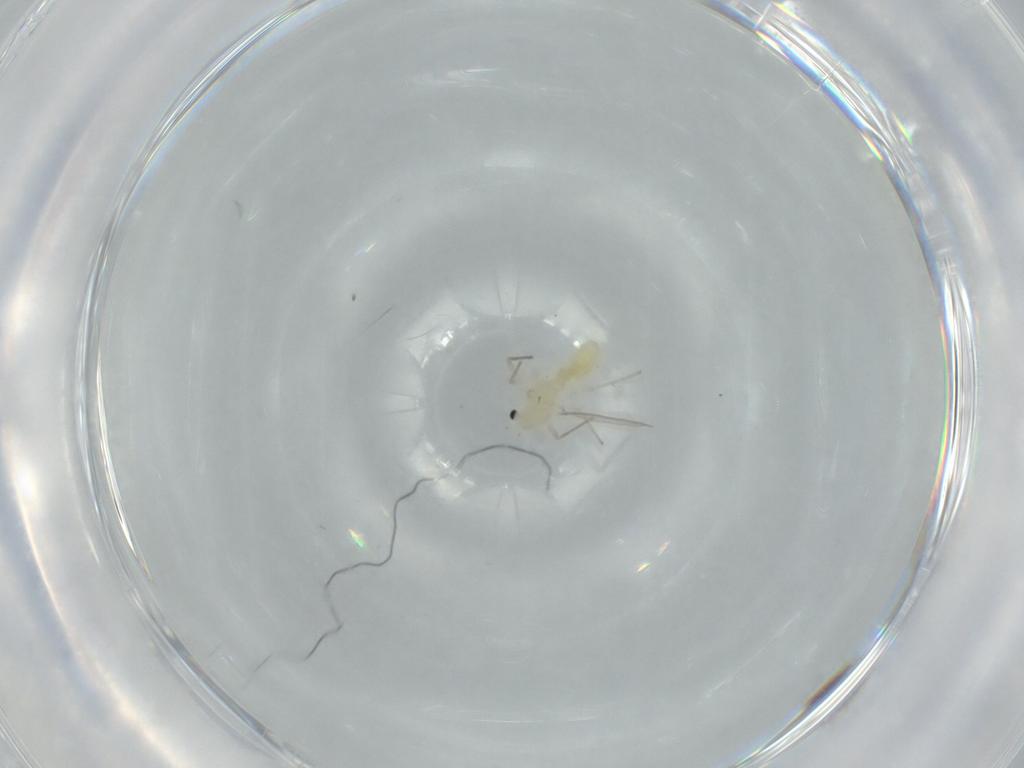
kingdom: Animalia
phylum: Arthropoda
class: Insecta
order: Diptera
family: Chironomidae
